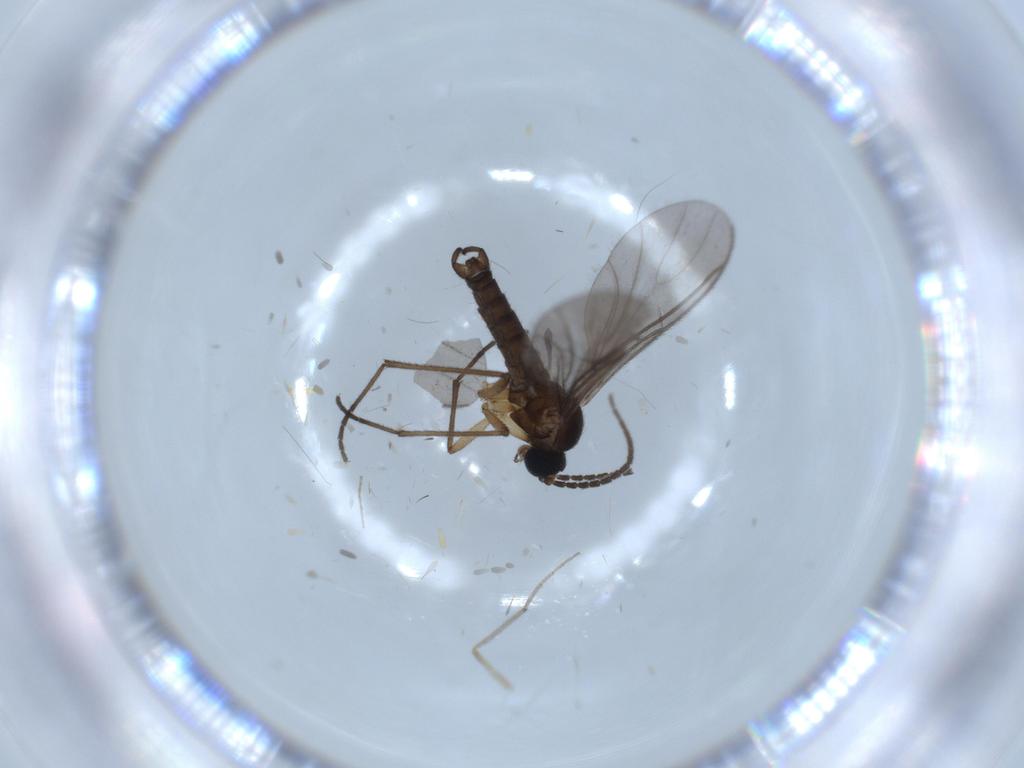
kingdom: Animalia
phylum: Arthropoda
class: Insecta
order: Diptera
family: Sciaridae
